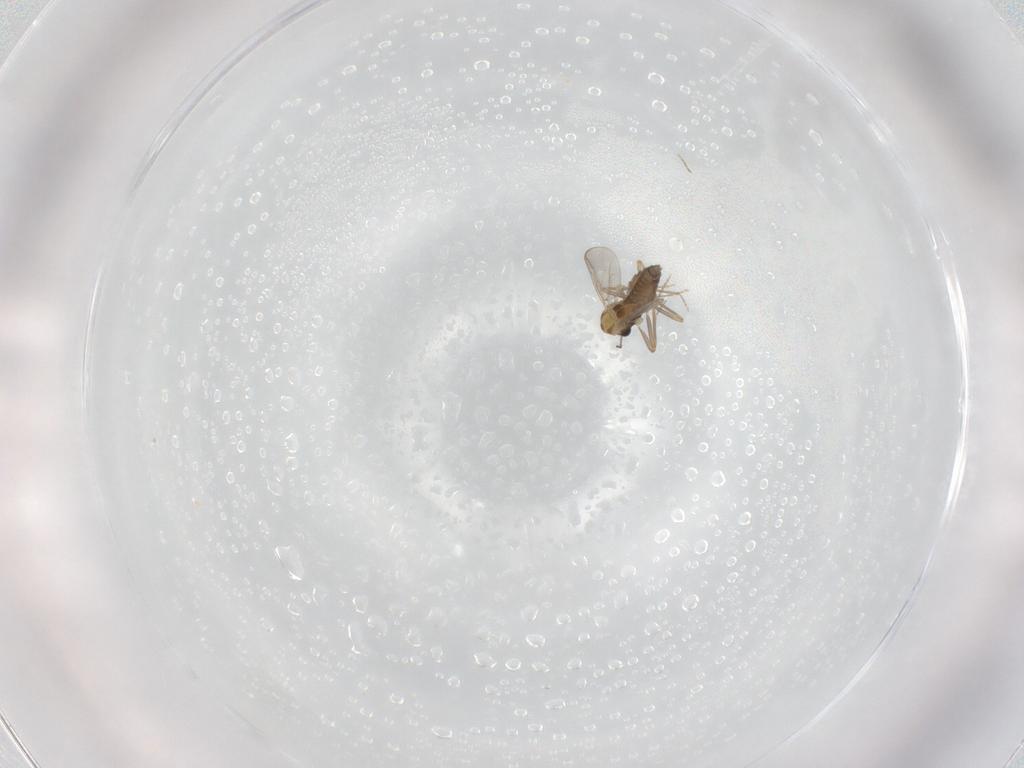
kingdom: Animalia
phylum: Arthropoda
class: Insecta
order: Diptera
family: Chironomidae
